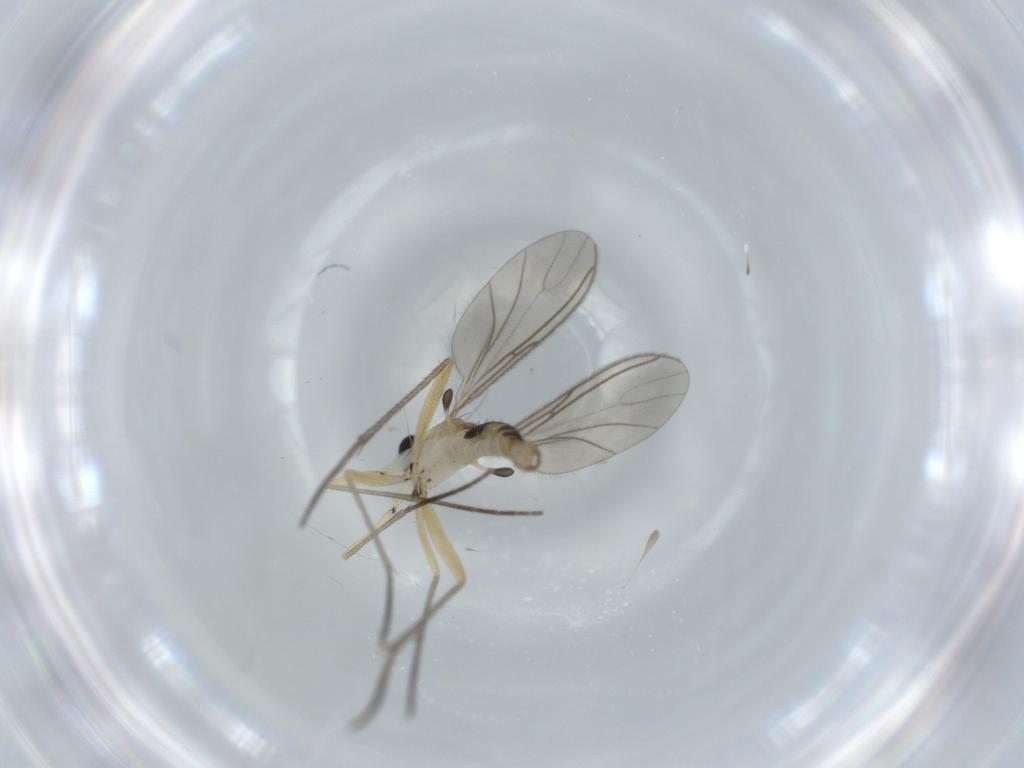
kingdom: Animalia
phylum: Arthropoda
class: Insecta
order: Diptera
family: Sciaridae
